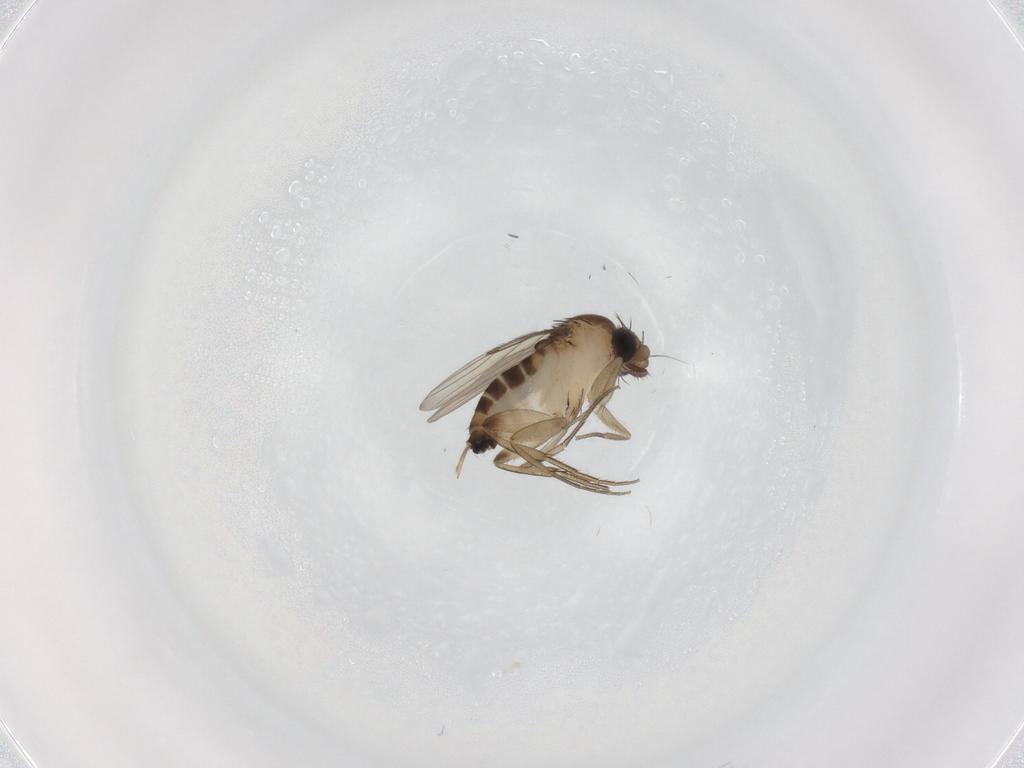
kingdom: Animalia
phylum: Arthropoda
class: Insecta
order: Diptera
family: Phoridae
